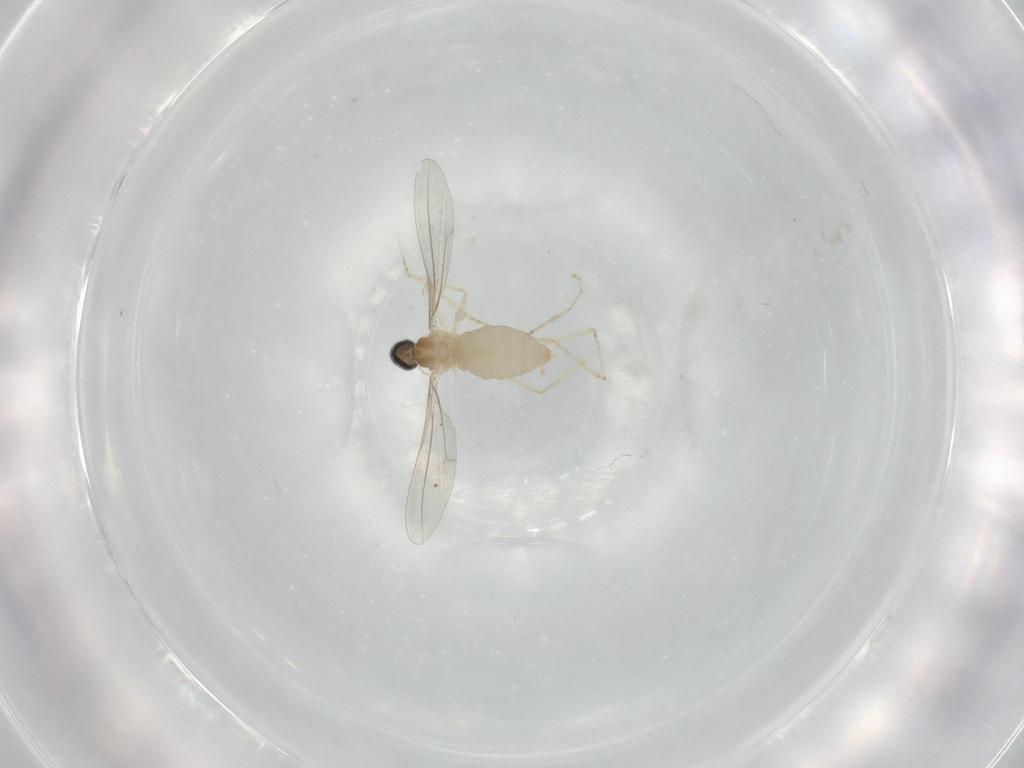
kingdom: Animalia
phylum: Arthropoda
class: Insecta
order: Diptera
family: Cecidomyiidae
